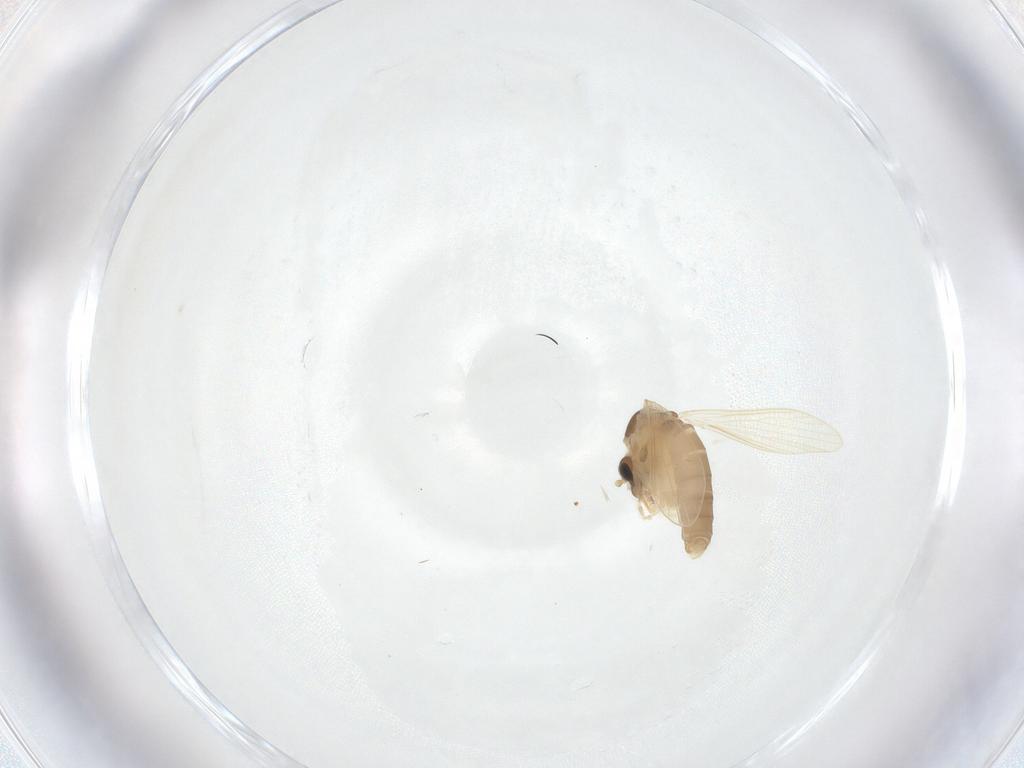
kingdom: Animalia
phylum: Arthropoda
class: Insecta
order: Diptera
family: Psychodidae
